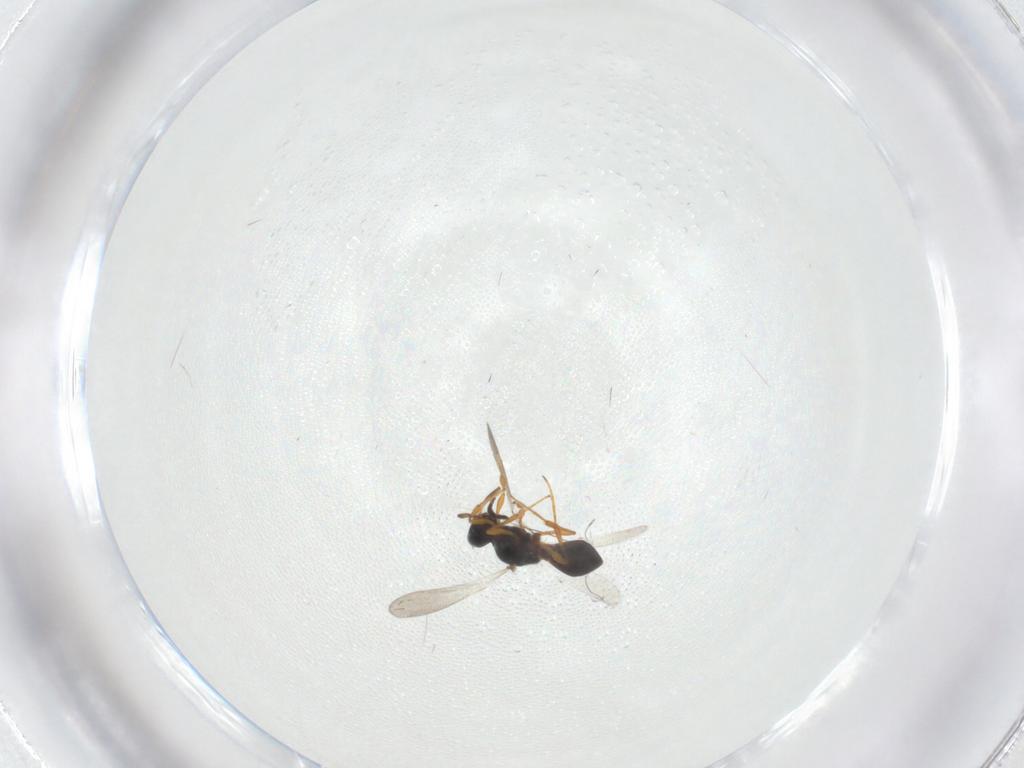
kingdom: Animalia
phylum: Arthropoda
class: Insecta
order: Hymenoptera
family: Platygastridae
